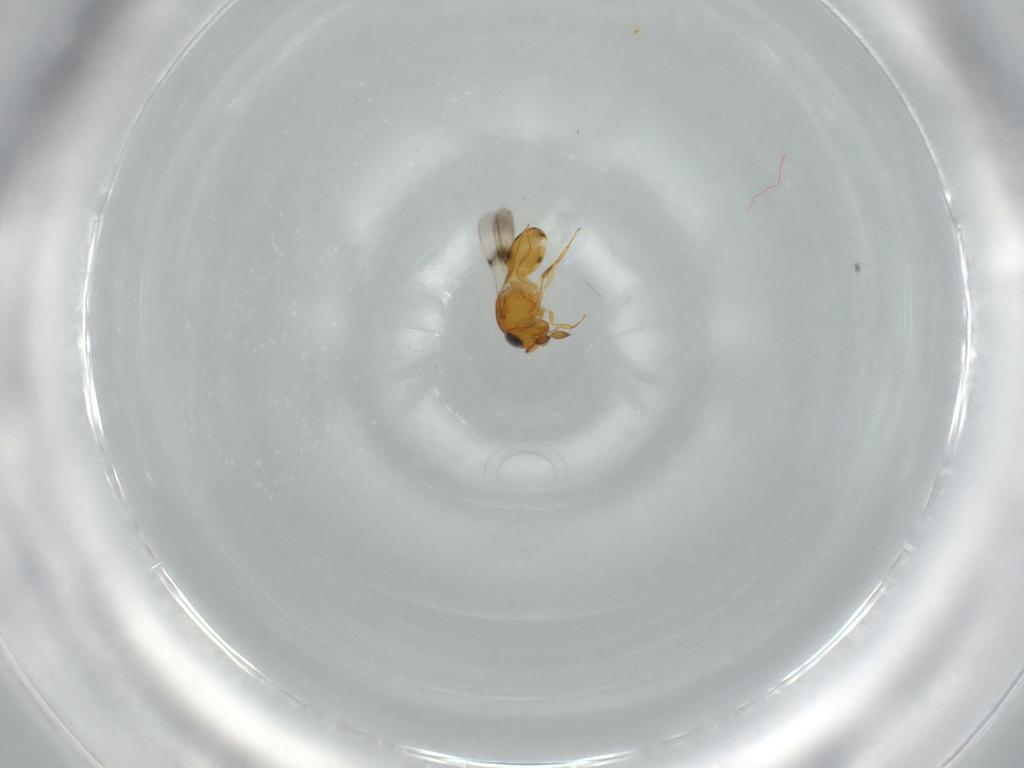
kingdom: Animalia
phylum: Arthropoda
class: Insecta
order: Hymenoptera
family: Scelionidae
